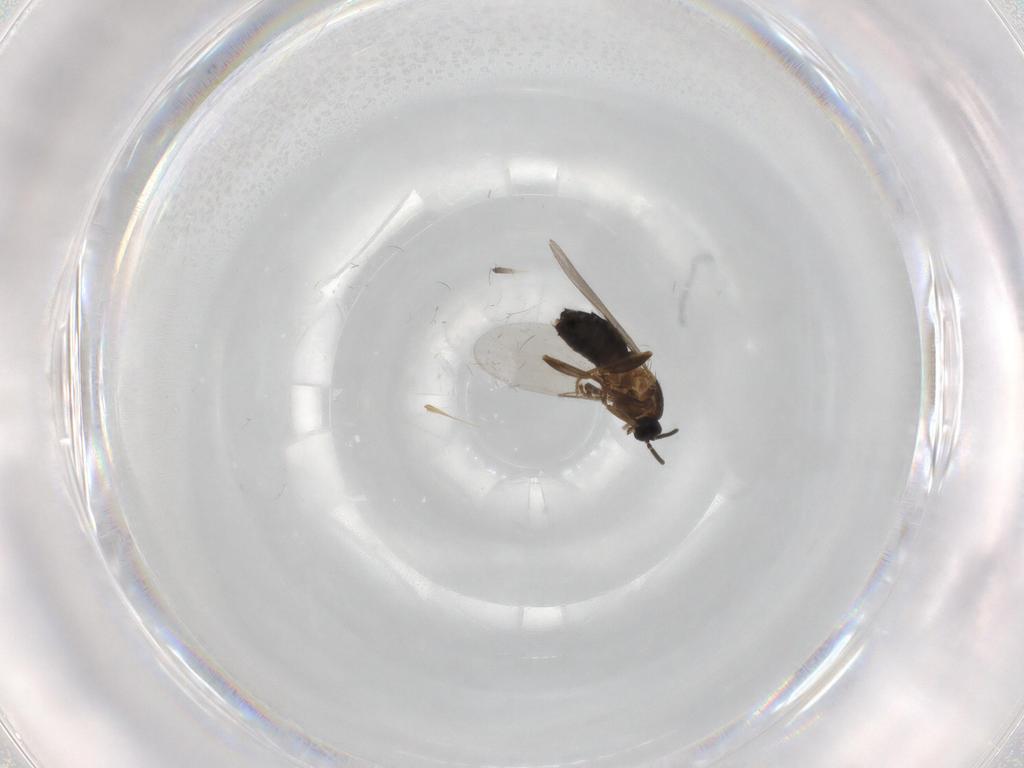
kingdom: Animalia
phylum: Arthropoda
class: Insecta
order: Diptera
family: Scatopsidae
